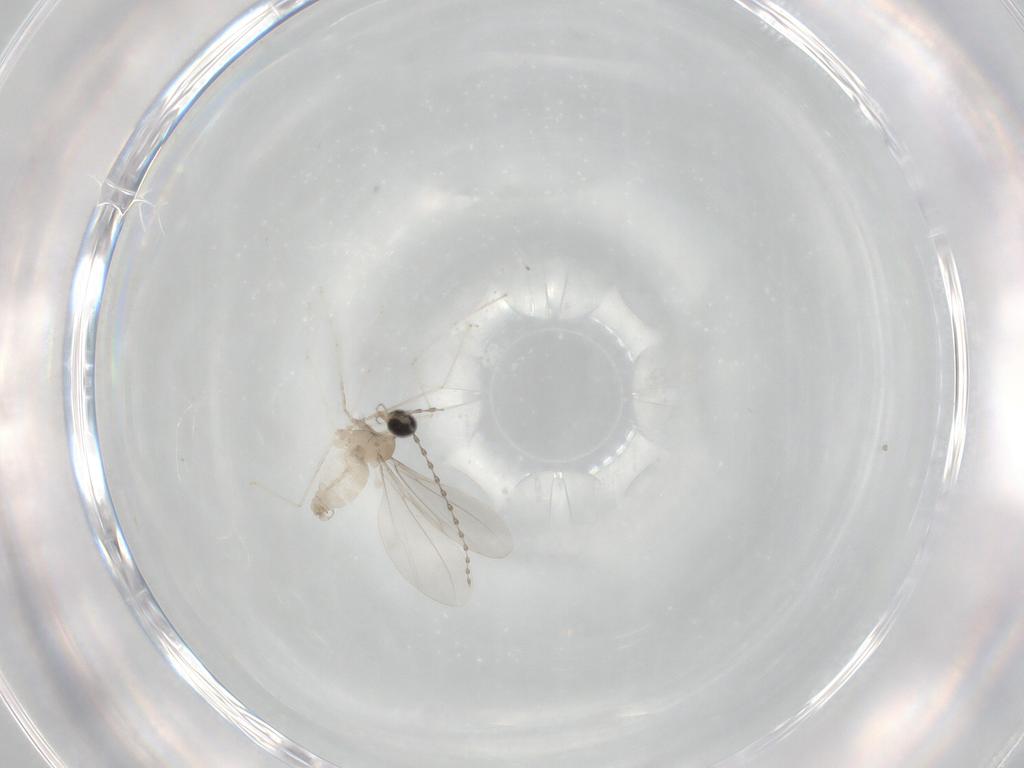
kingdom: Animalia
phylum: Arthropoda
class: Insecta
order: Diptera
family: Cecidomyiidae
